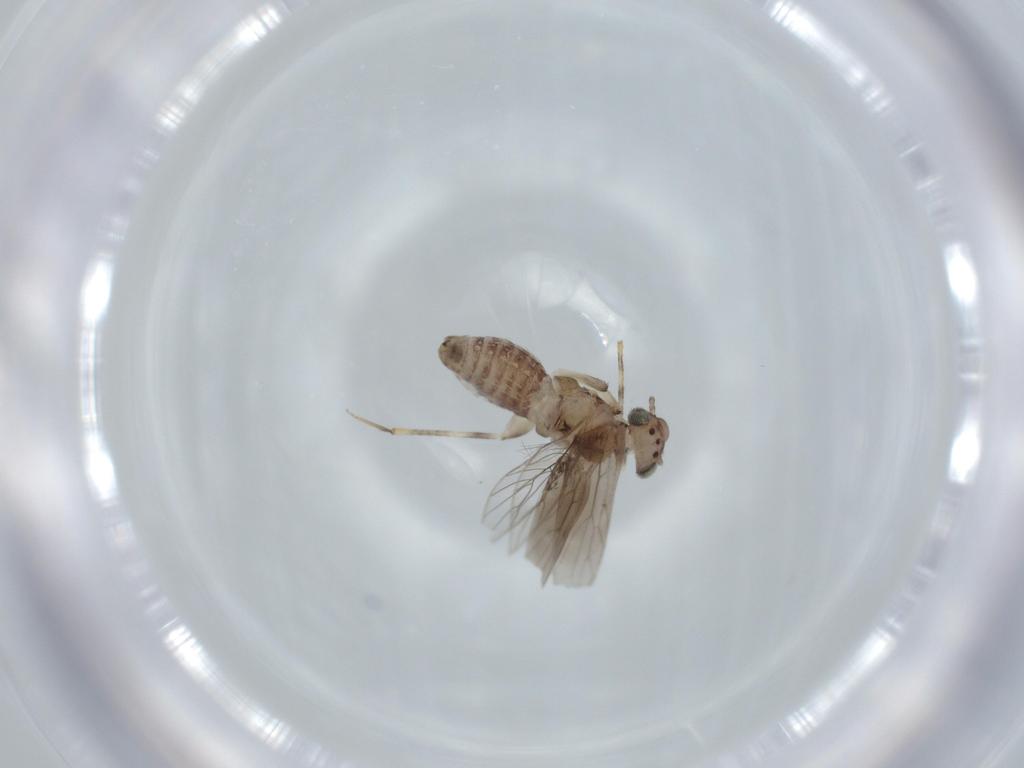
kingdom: Animalia
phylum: Arthropoda
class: Insecta
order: Psocodea
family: Lepidopsocidae
